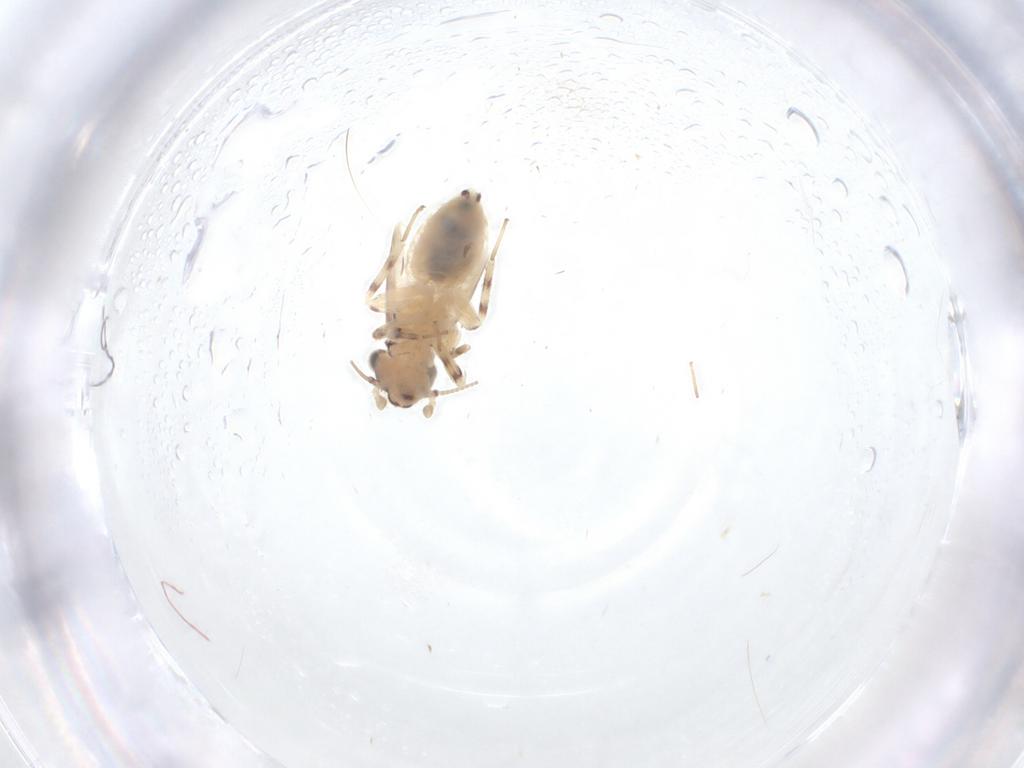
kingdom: Animalia
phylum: Arthropoda
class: Insecta
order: Psocodea
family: Lepidopsocidae
